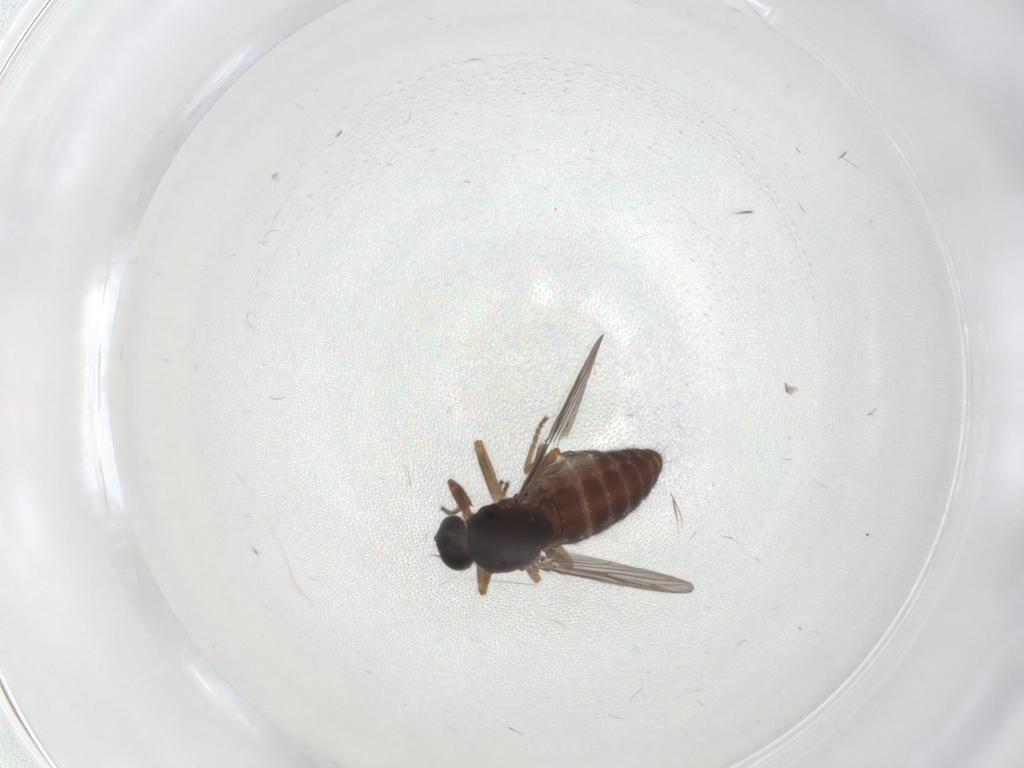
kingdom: Animalia
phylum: Arthropoda
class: Insecta
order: Diptera
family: Ceratopogonidae
